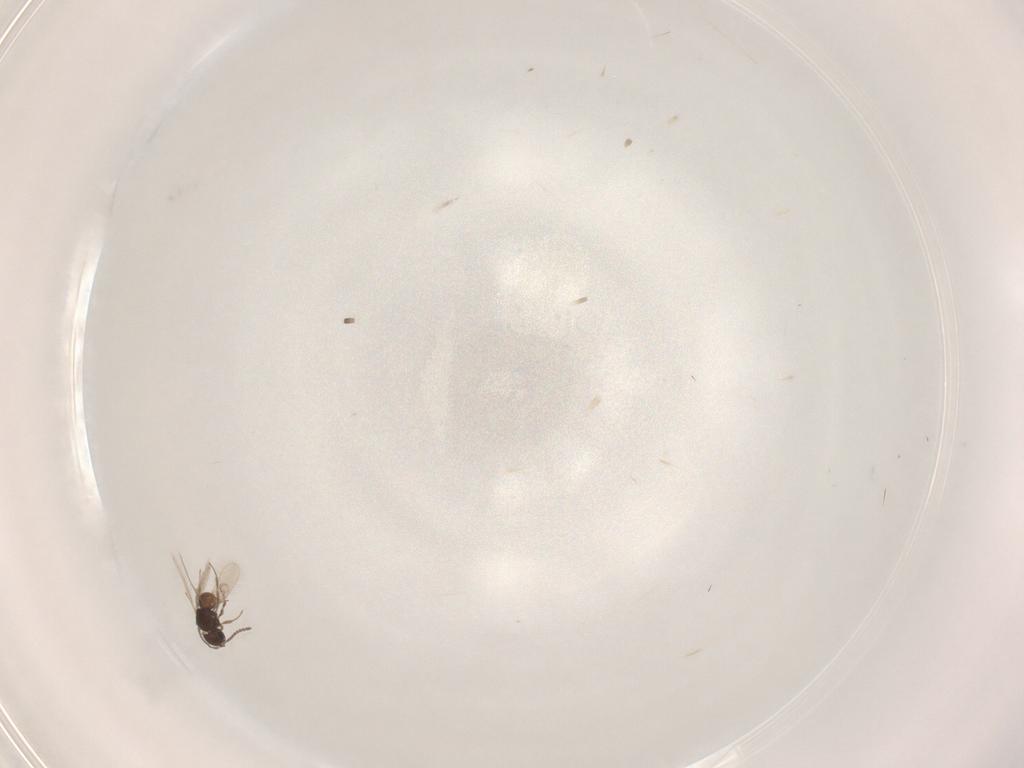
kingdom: Animalia
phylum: Arthropoda
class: Insecta
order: Hymenoptera
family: Scelionidae
